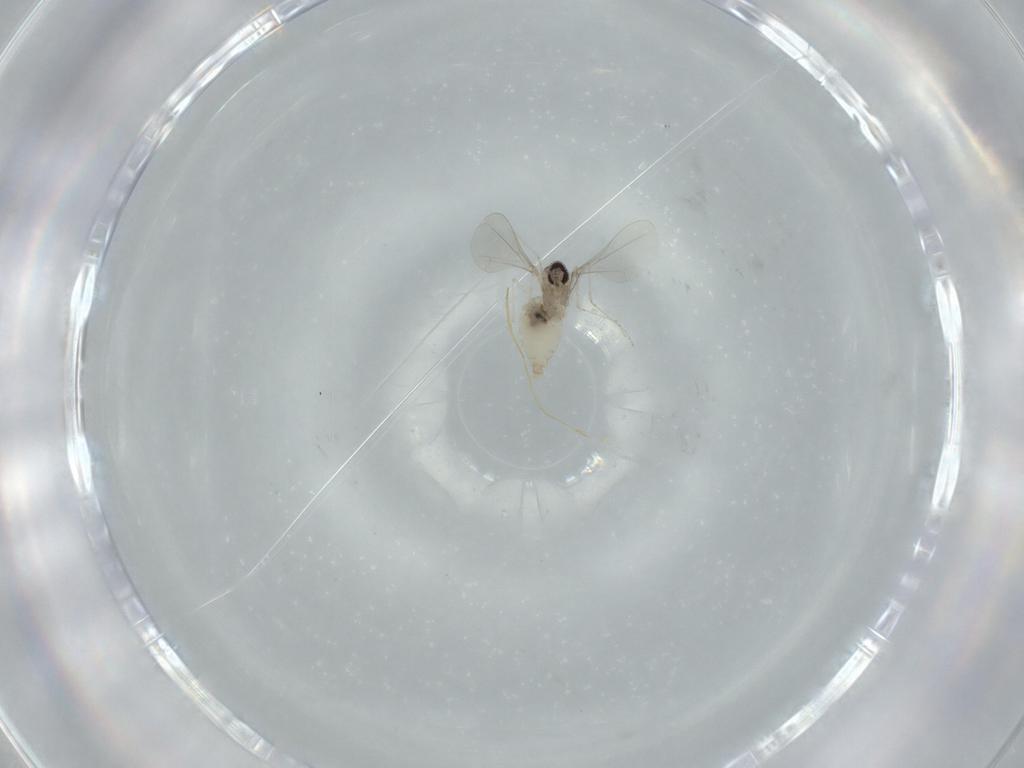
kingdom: Animalia
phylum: Arthropoda
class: Insecta
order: Diptera
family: Cecidomyiidae
